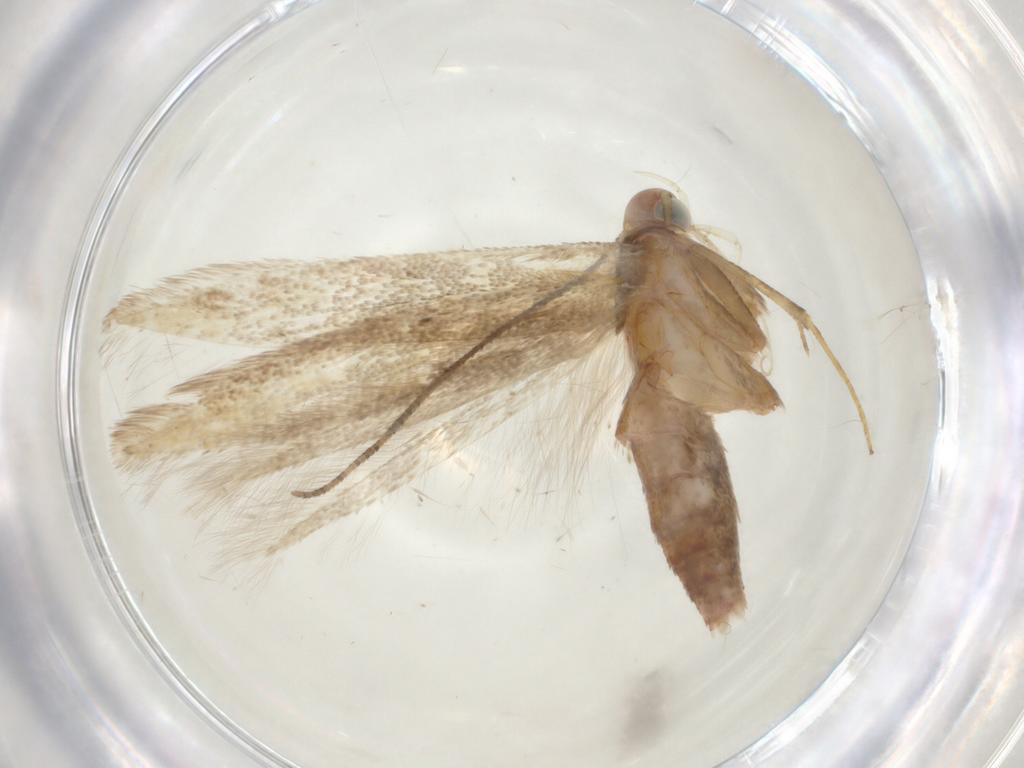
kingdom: Animalia
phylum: Arthropoda
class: Insecta
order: Lepidoptera
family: Batrachedridae
